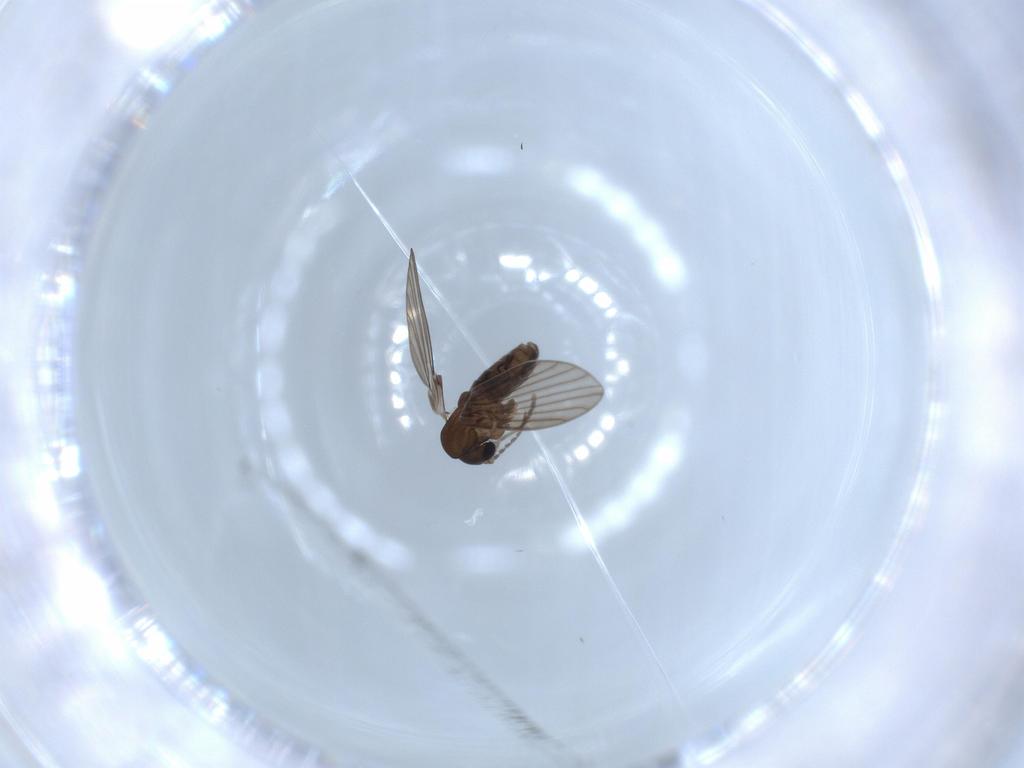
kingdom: Animalia
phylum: Arthropoda
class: Insecta
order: Diptera
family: Psychodidae
